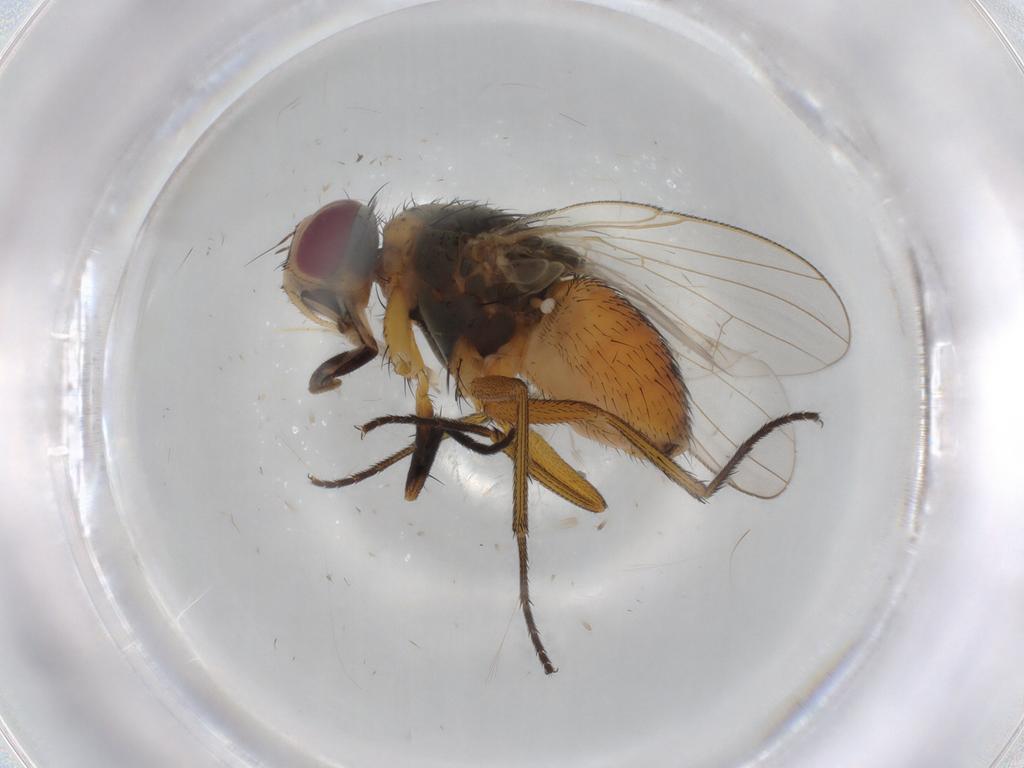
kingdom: Animalia
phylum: Arthropoda
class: Insecta
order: Diptera
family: Muscidae
